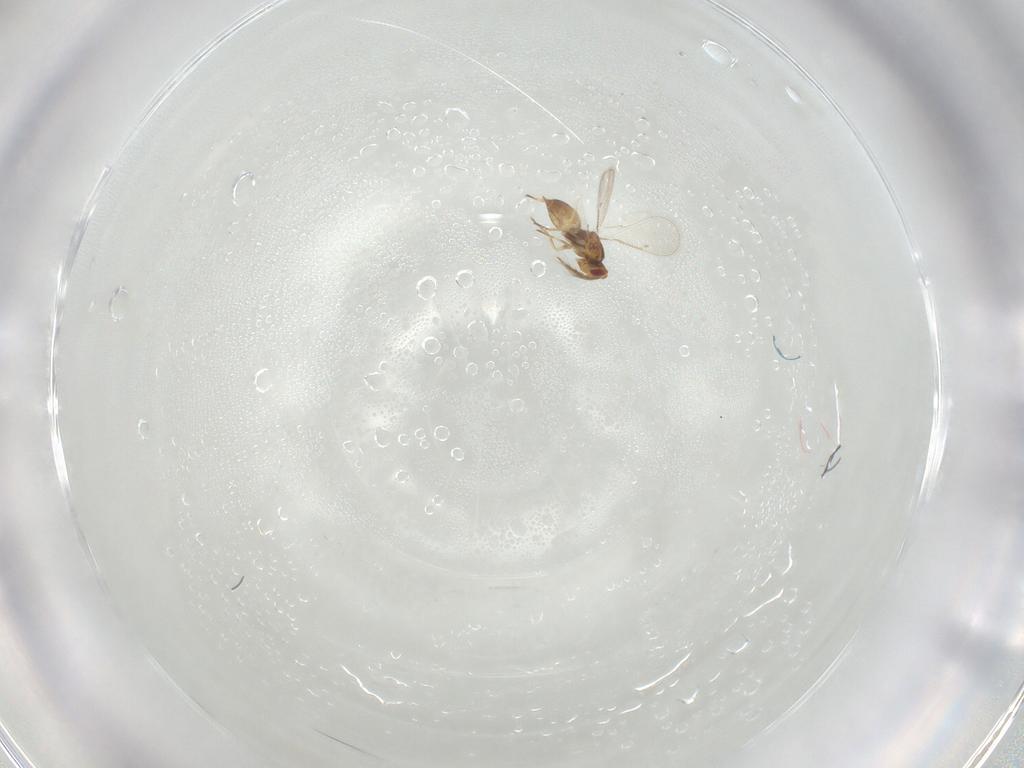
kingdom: Animalia
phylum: Arthropoda
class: Insecta
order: Hymenoptera
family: Eulophidae
